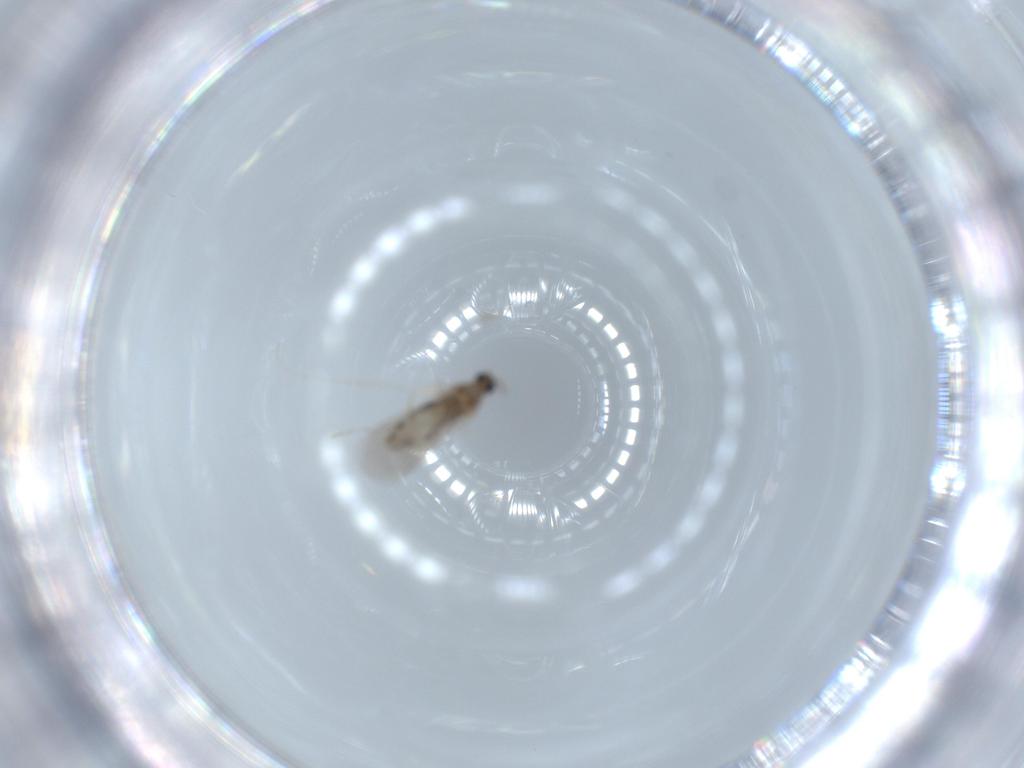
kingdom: Animalia
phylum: Arthropoda
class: Insecta
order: Diptera
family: Cecidomyiidae
